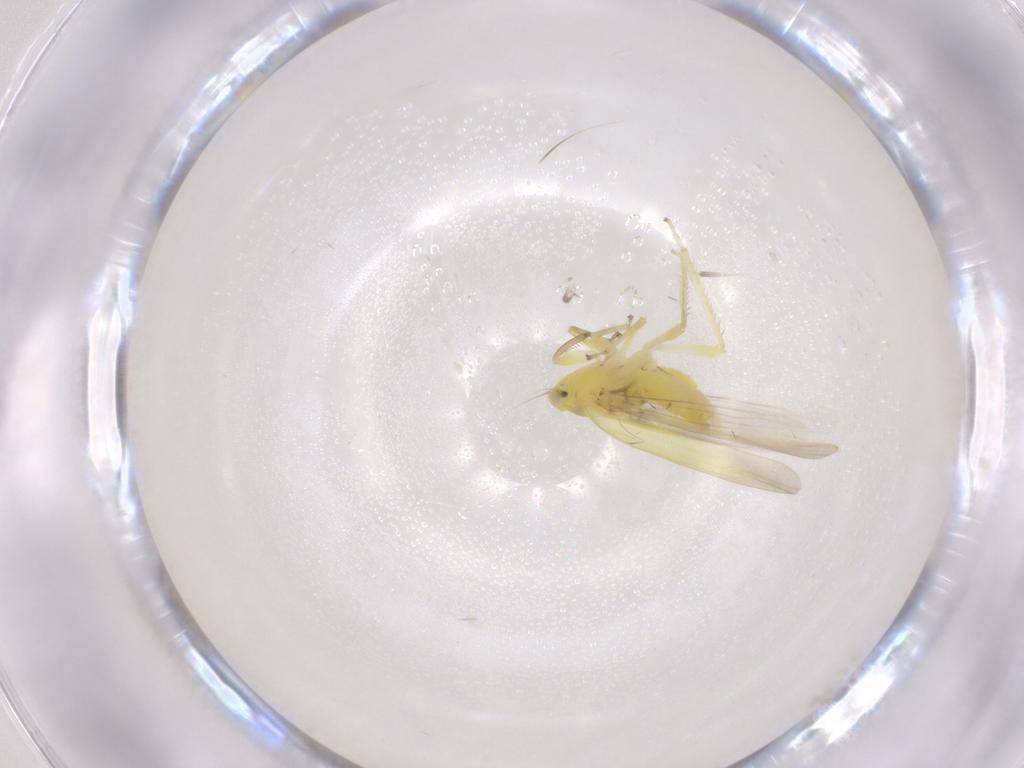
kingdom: Animalia
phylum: Arthropoda
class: Insecta
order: Hemiptera
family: Cicadellidae
